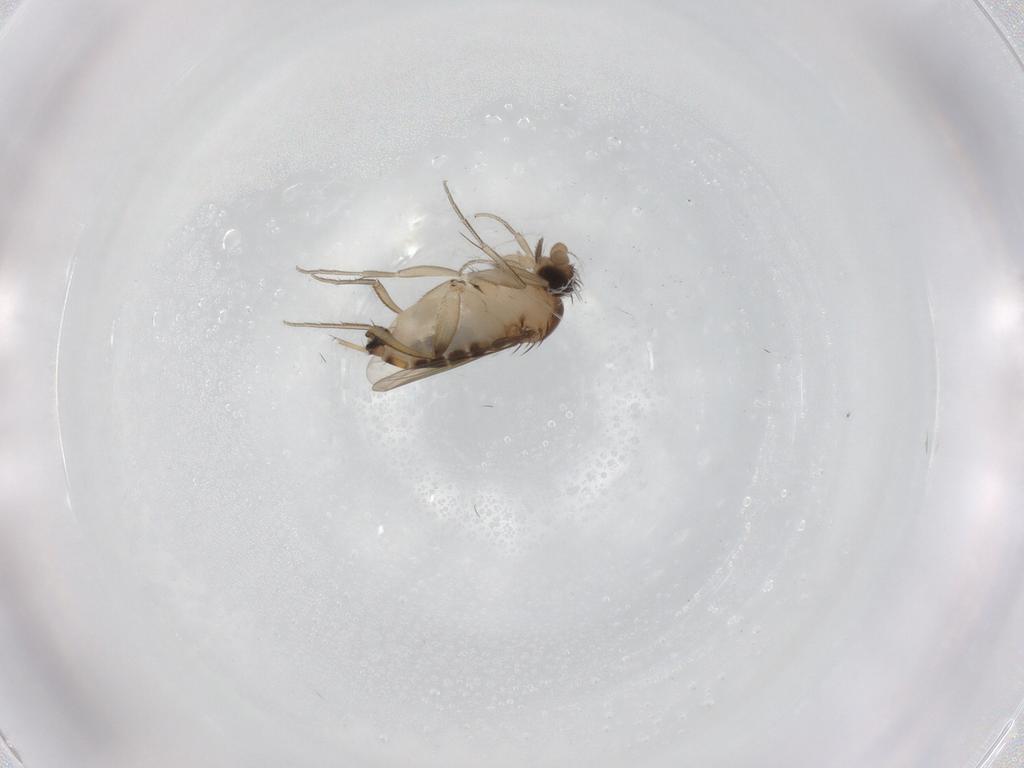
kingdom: Animalia
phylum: Arthropoda
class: Insecta
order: Diptera
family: Phoridae
